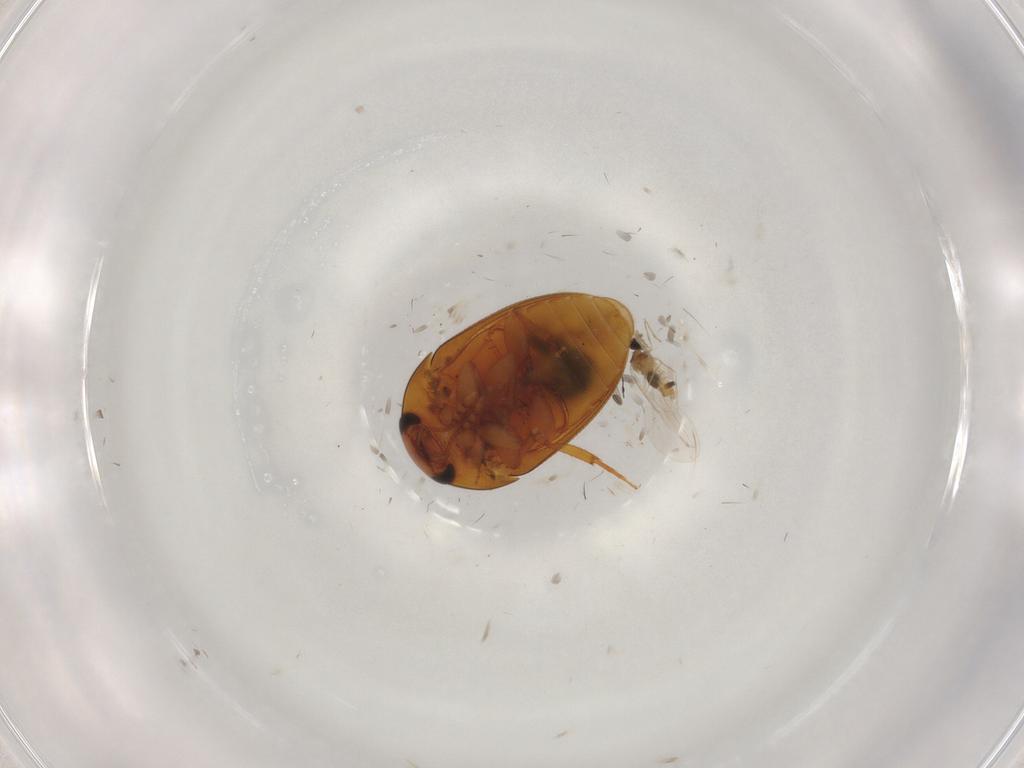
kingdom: Animalia
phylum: Arthropoda
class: Insecta
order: Diptera
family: Cecidomyiidae
